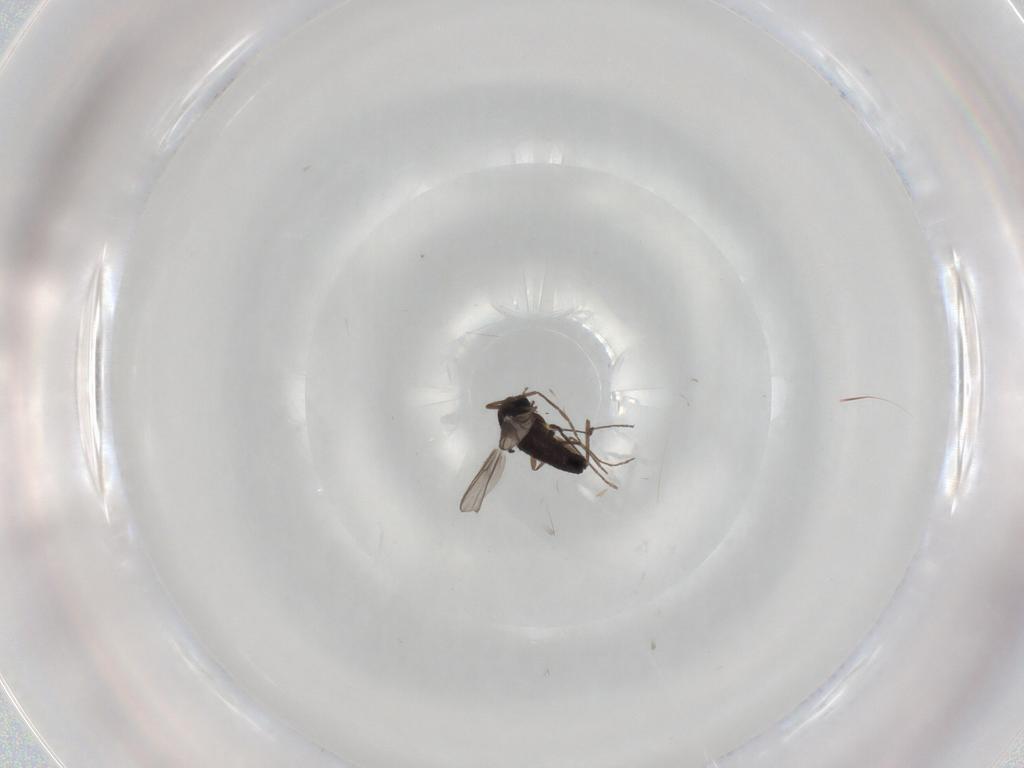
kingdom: Animalia
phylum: Arthropoda
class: Insecta
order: Diptera
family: Chironomidae
